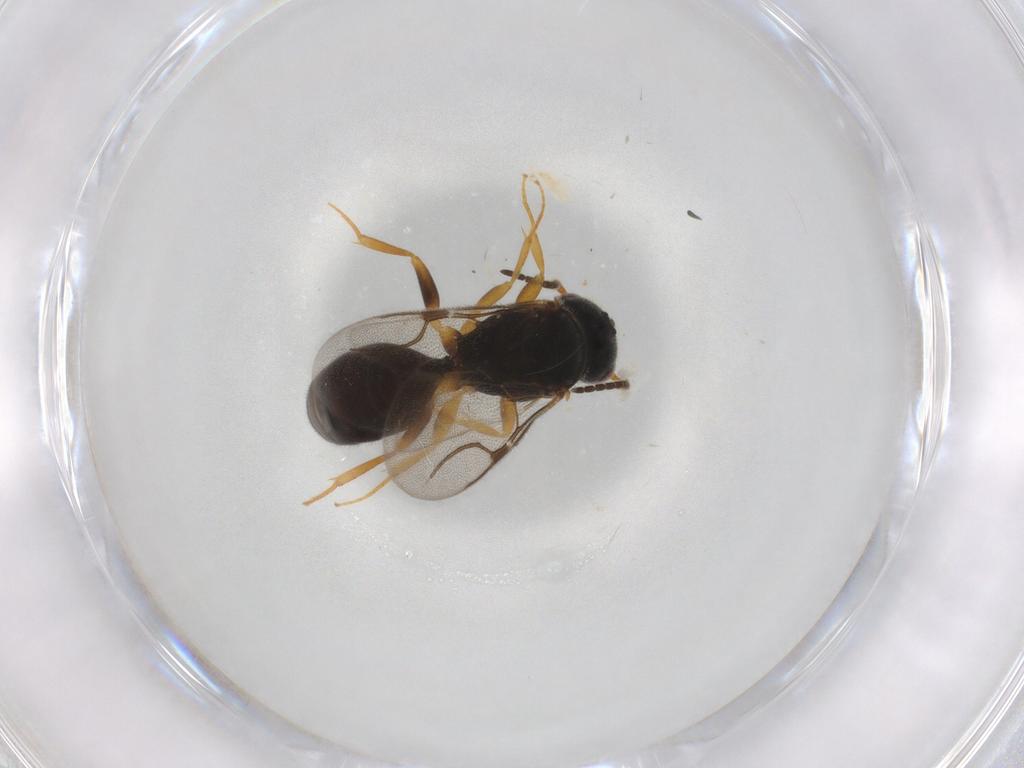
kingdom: Animalia
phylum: Arthropoda
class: Insecta
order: Hymenoptera
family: Bethylidae
